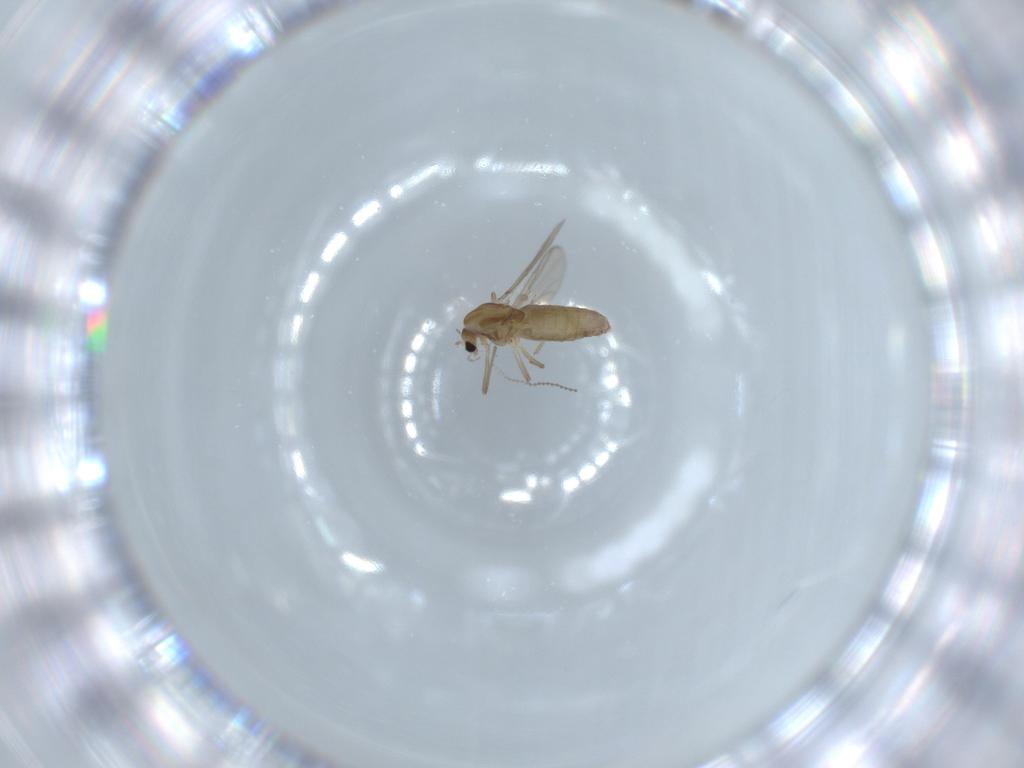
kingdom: Animalia
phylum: Arthropoda
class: Insecta
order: Diptera
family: Chironomidae
